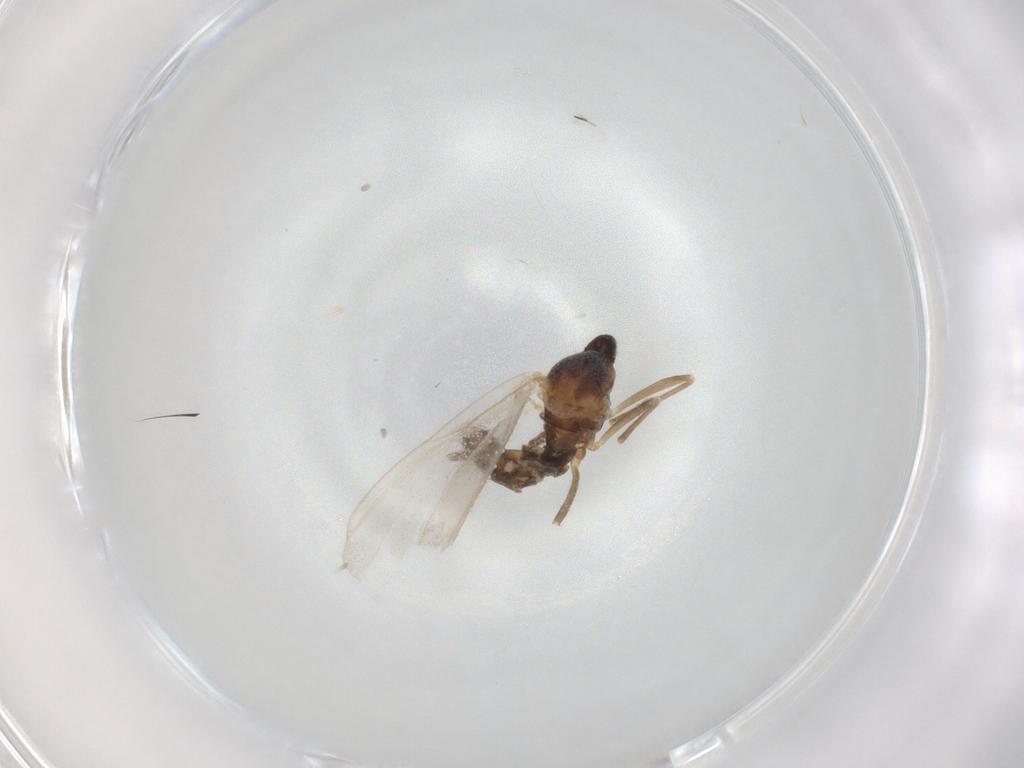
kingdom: Animalia
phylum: Arthropoda
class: Insecta
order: Diptera
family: Cecidomyiidae
